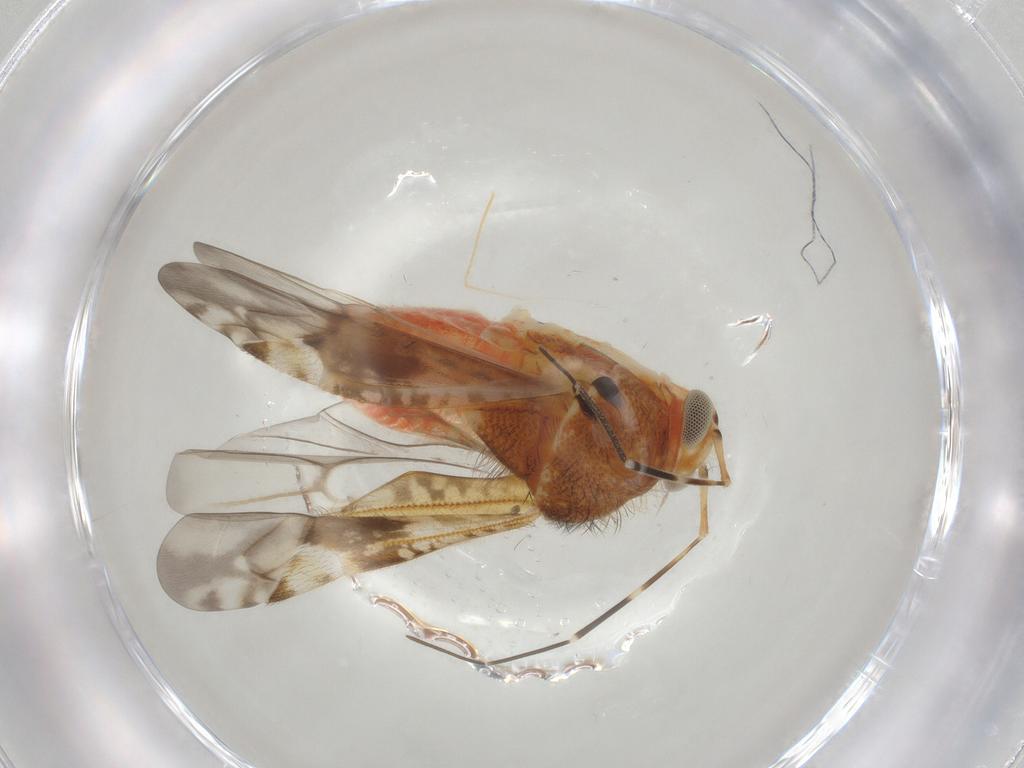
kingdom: Animalia
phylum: Arthropoda
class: Insecta
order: Hemiptera
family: Miridae
